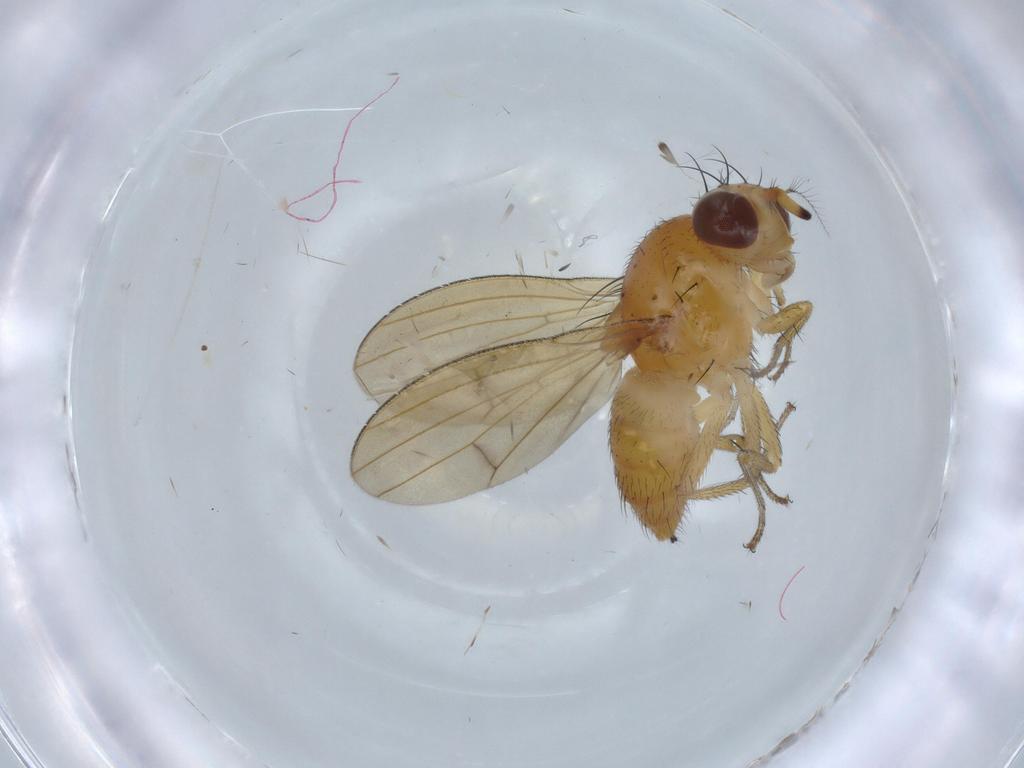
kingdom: Animalia
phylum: Arthropoda
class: Insecta
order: Diptera
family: Lauxaniidae
